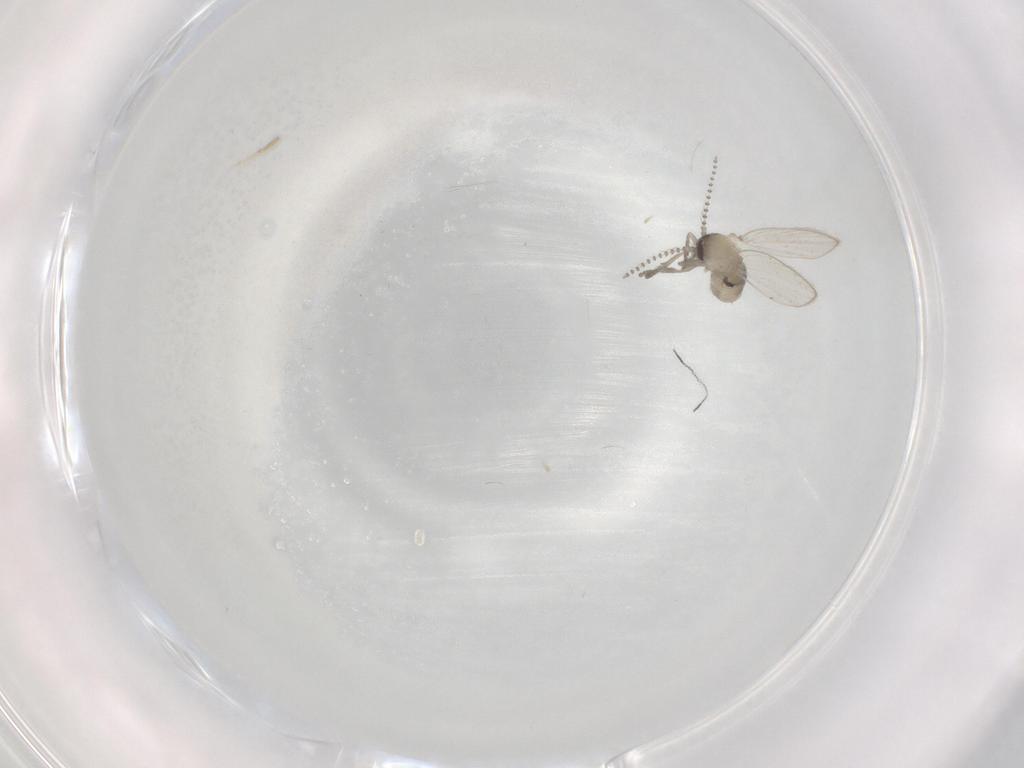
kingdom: Animalia
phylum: Arthropoda
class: Insecta
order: Diptera
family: Psychodidae
